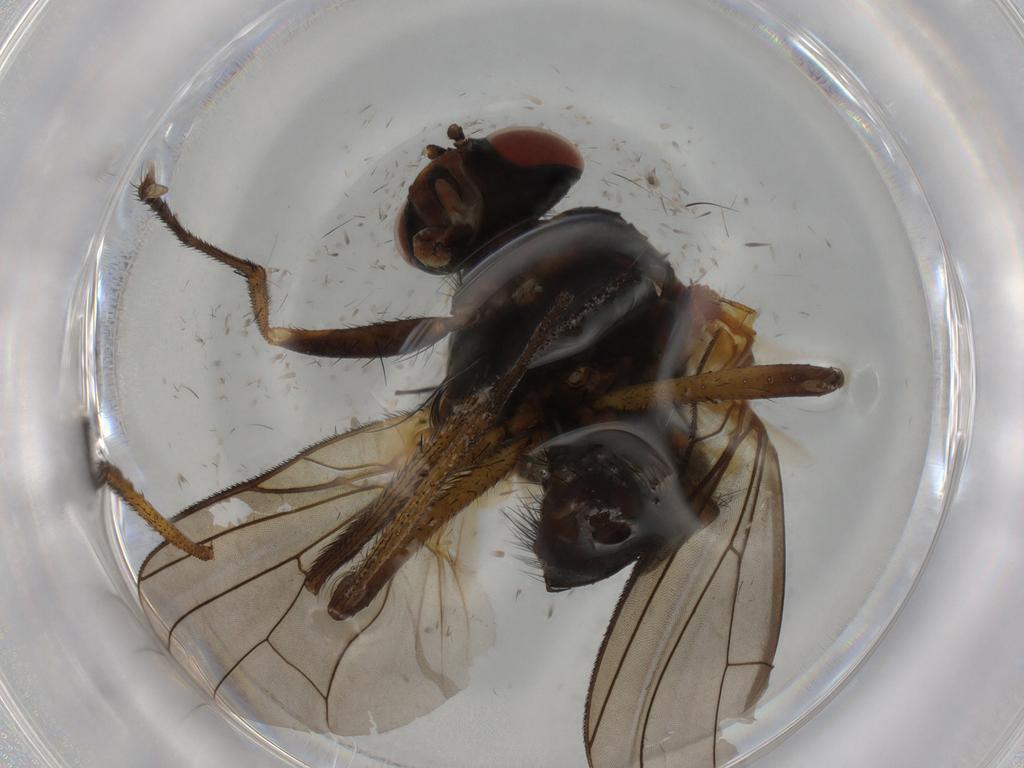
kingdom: Animalia
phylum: Arthropoda
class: Insecta
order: Diptera
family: Anthomyiidae
